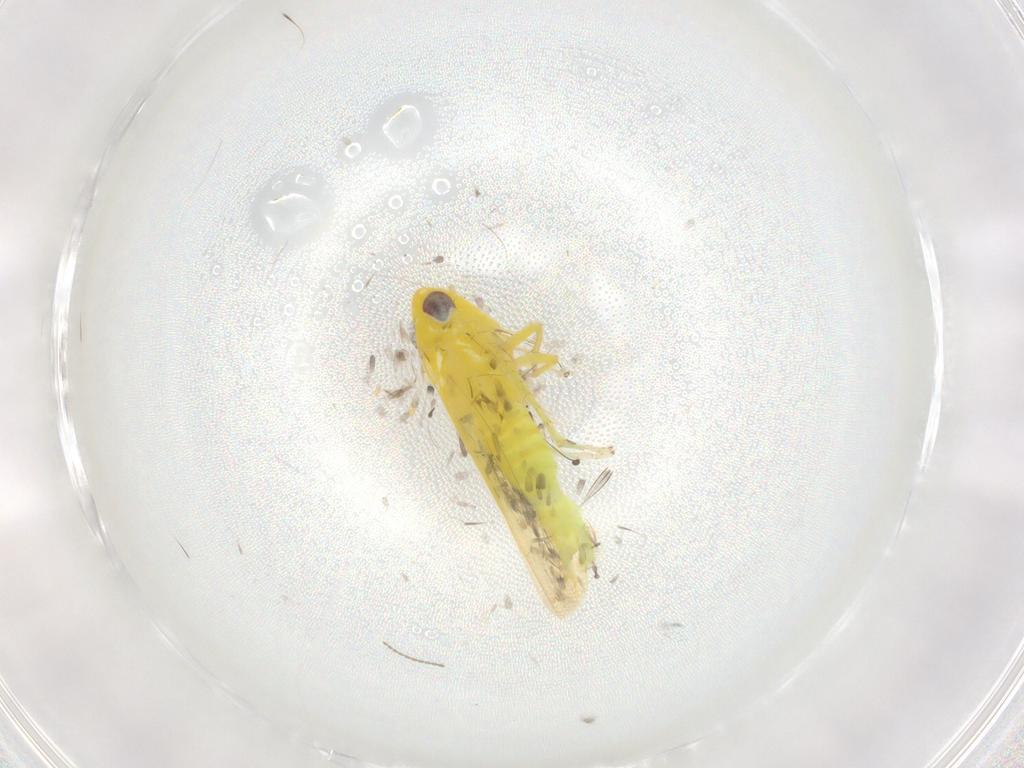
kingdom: Animalia
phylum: Arthropoda
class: Insecta
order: Hemiptera
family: Cicadellidae
